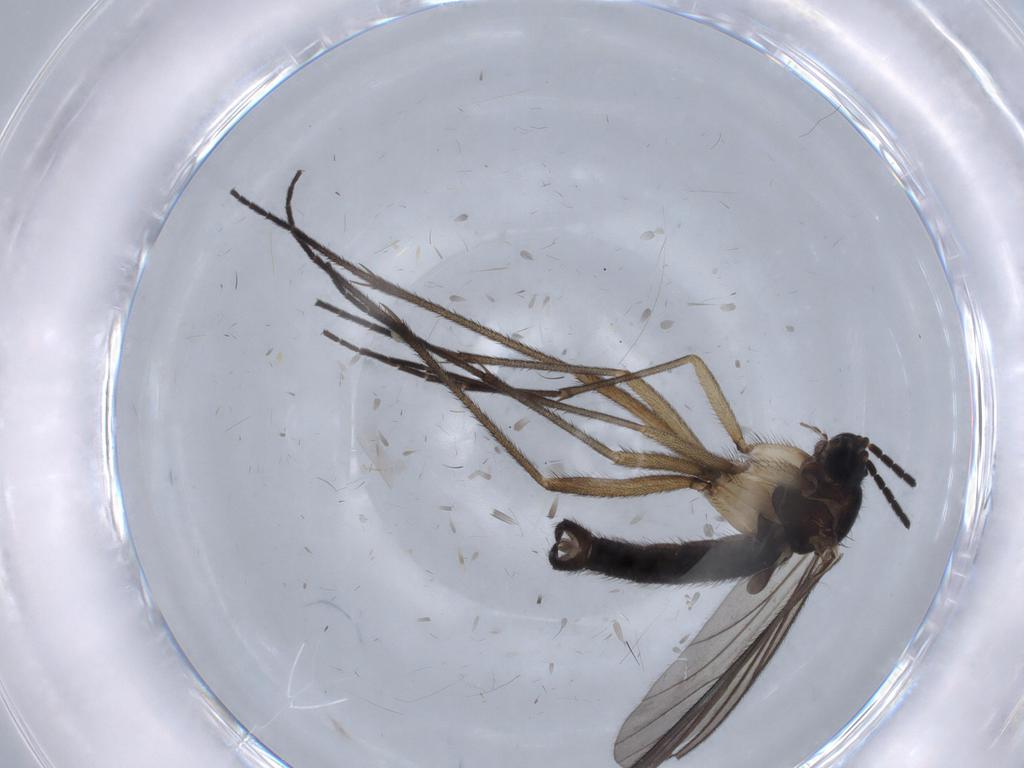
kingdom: Animalia
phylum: Arthropoda
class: Insecta
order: Diptera
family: Sciaridae
